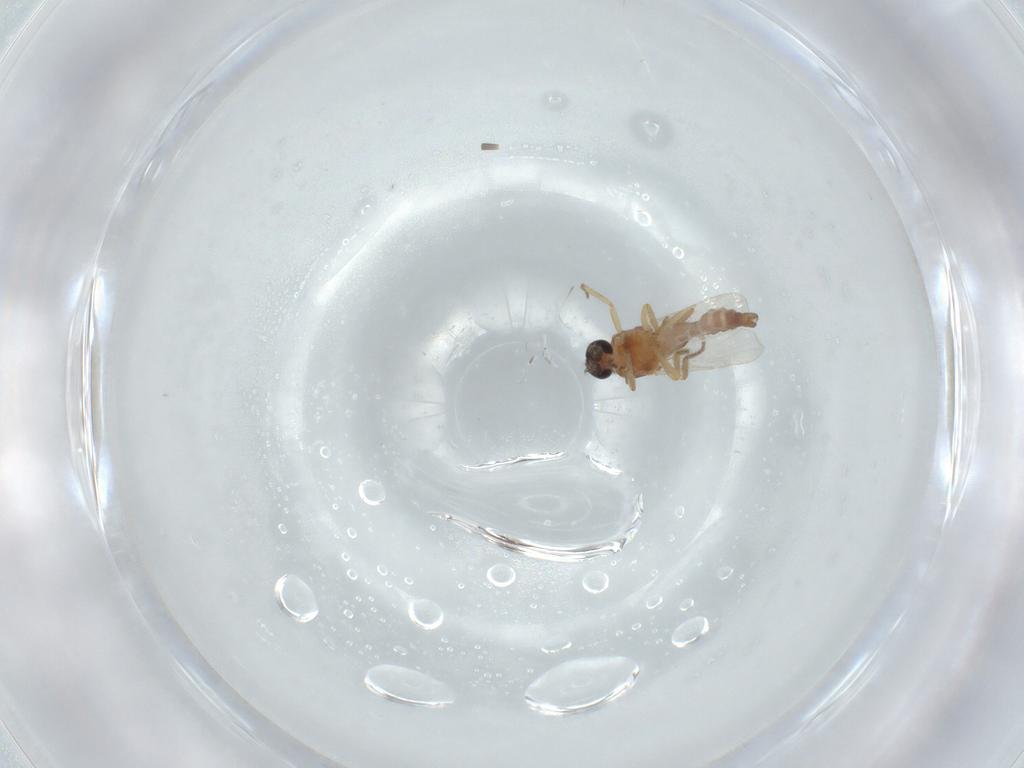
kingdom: Animalia
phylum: Arthropoda
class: Insecta
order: Diptera
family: Ceratopogonidae
